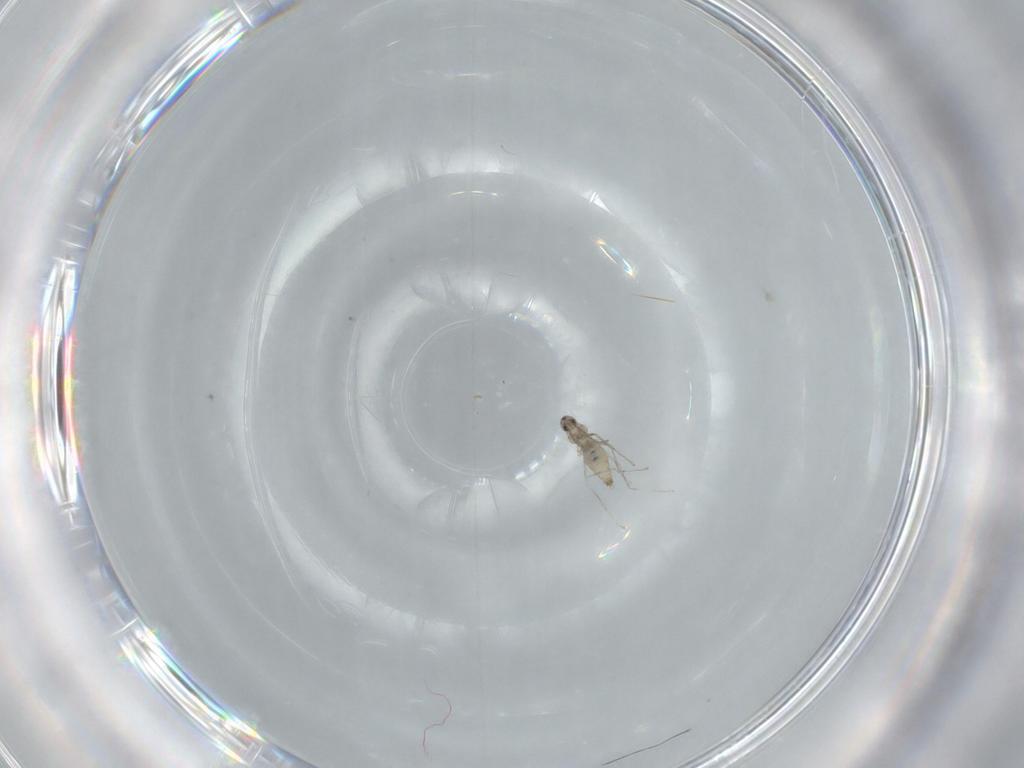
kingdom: Animalia
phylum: Arthropoda
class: Insecta
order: Diptera
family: Cecidomyiidae
